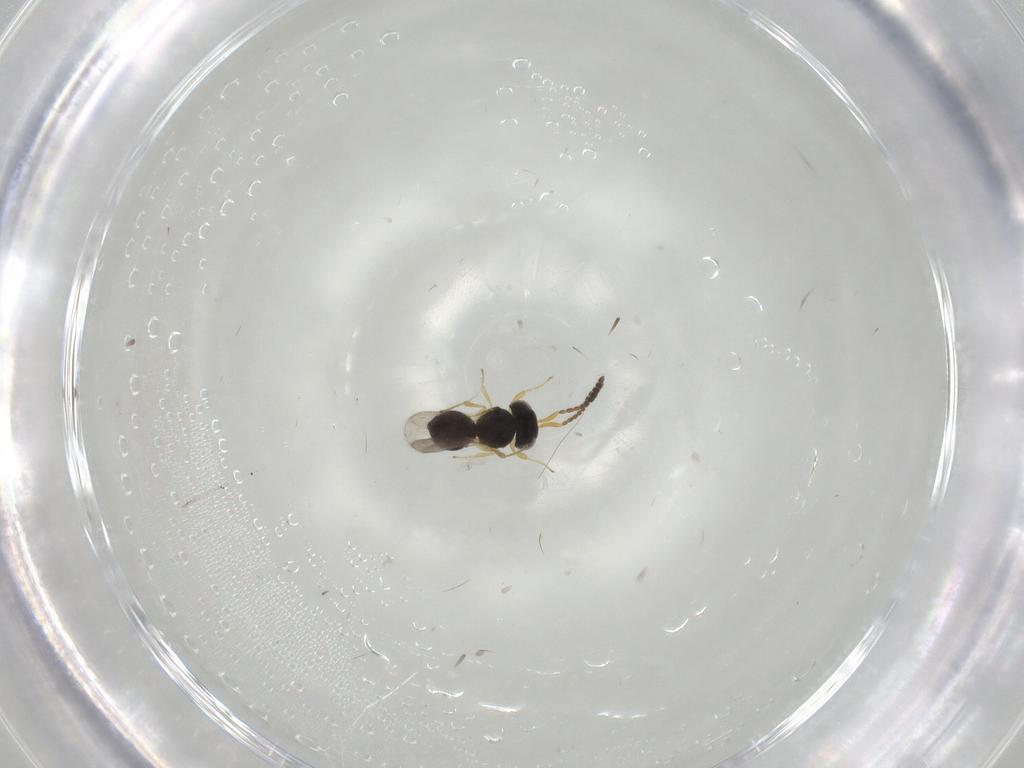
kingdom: Animalia
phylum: Arthropoda
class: Insecta
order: Hymenoptera
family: Scelionidae
